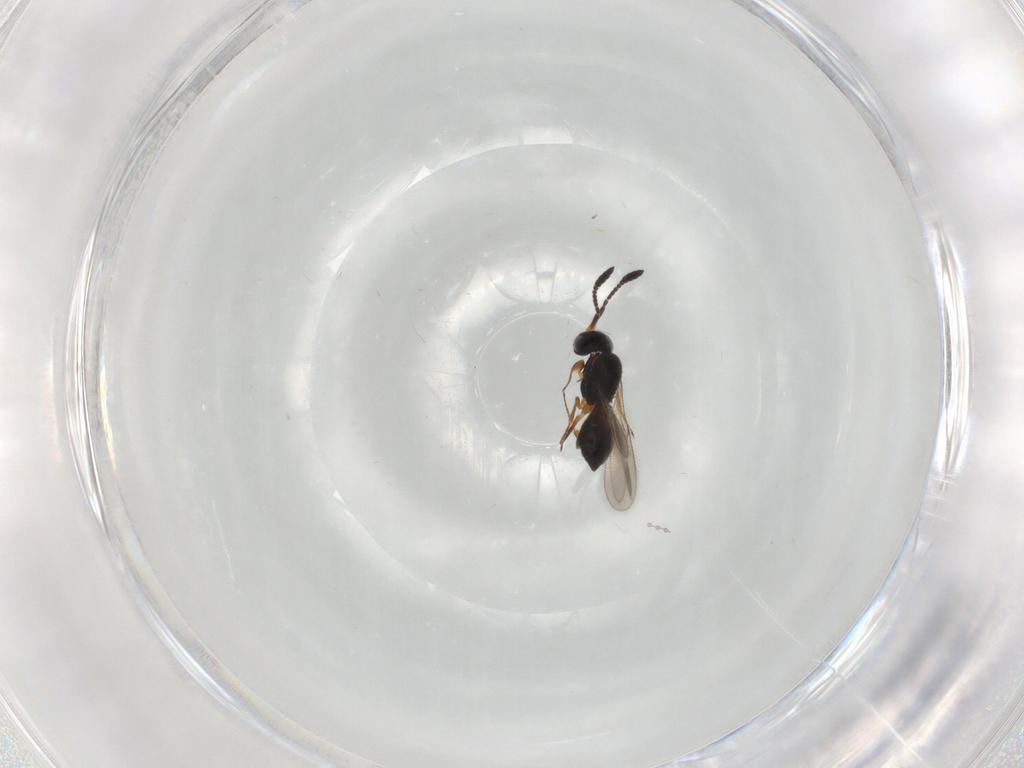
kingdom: Animalia
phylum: Arthropoda
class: Insecta
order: Hymenoptera
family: Scelionidae
